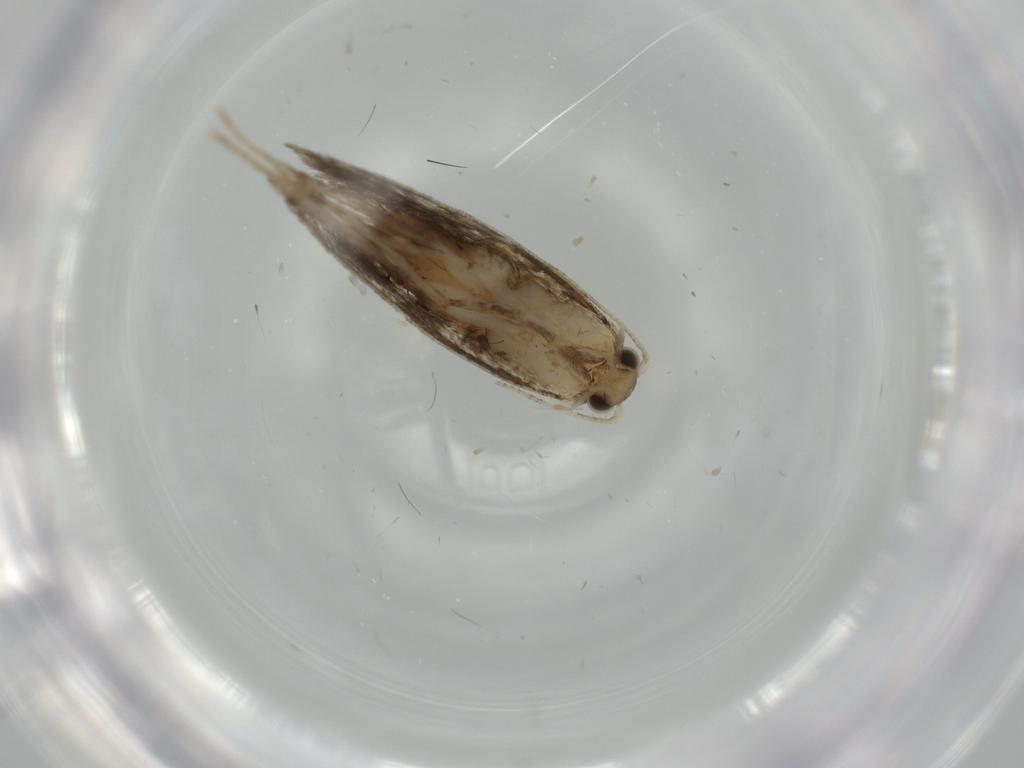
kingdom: Animalia
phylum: Arthropoda
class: Insecta
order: Lepidoptera
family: Tineidae
